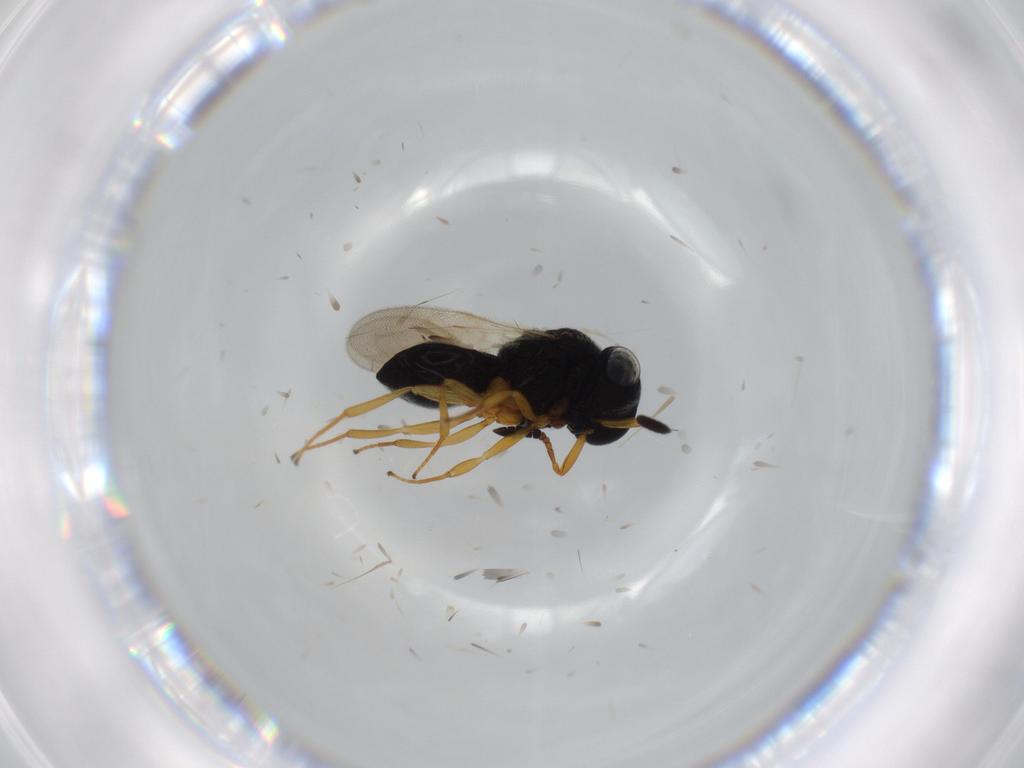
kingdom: Animalia
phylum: Arthropoda
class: Insecta
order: Hymenoptera
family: Scelionidae
